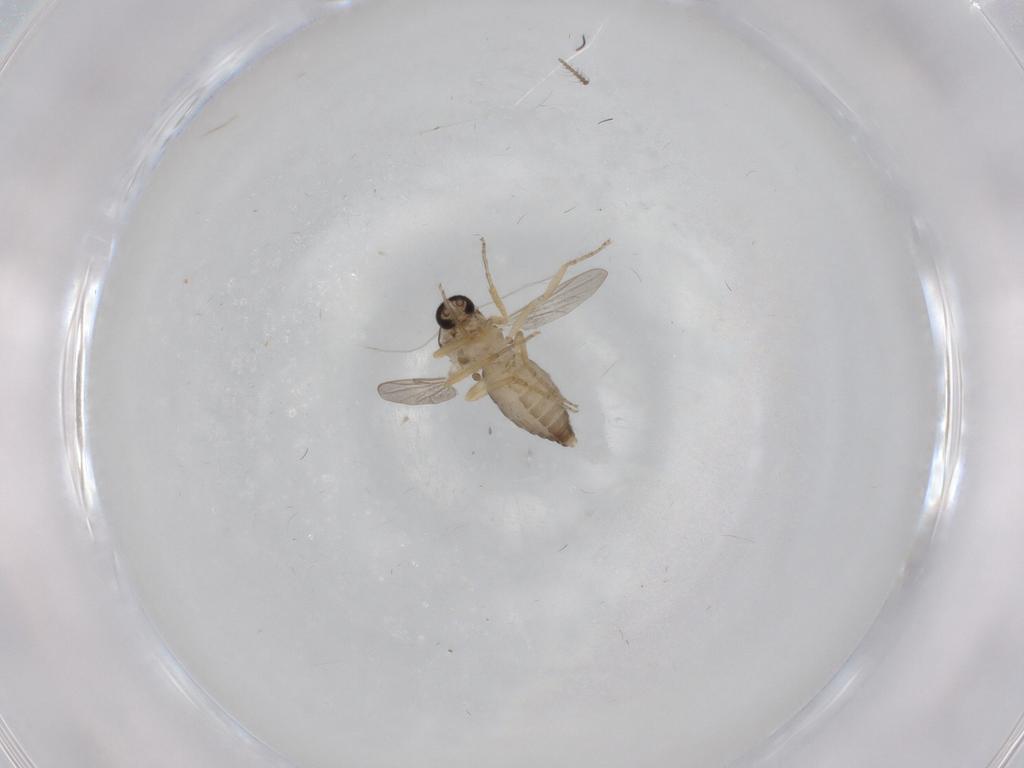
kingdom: Animalia
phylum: Arthropoda
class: Insecta
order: Diptera
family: Ceratopogonidae
